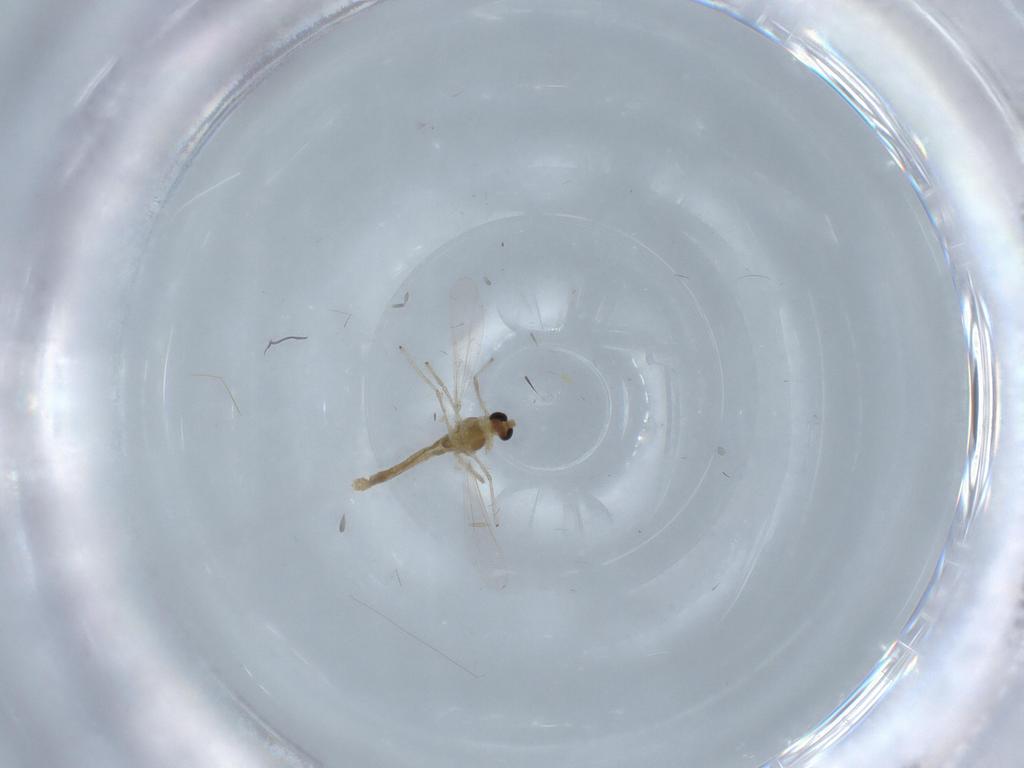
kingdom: Animalia
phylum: Arthropoda
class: Insecta
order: Diptera
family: Chironomidae
